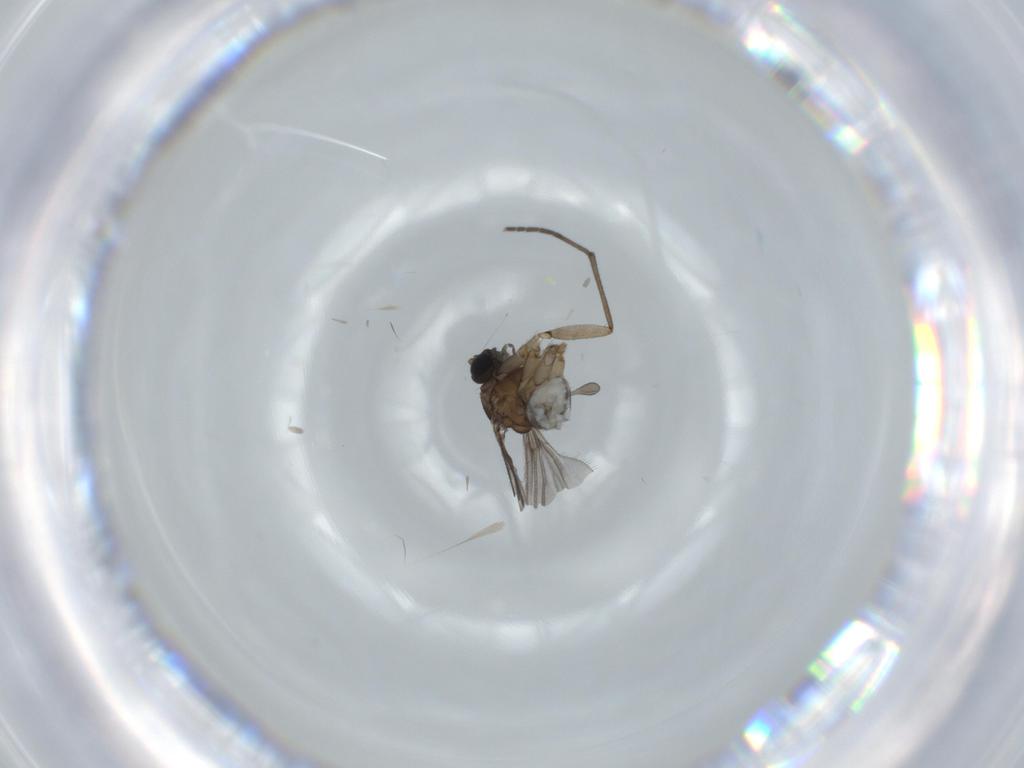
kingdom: Animalia
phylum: Arthropoda
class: Insecta
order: Diptera
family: Sciaridae
